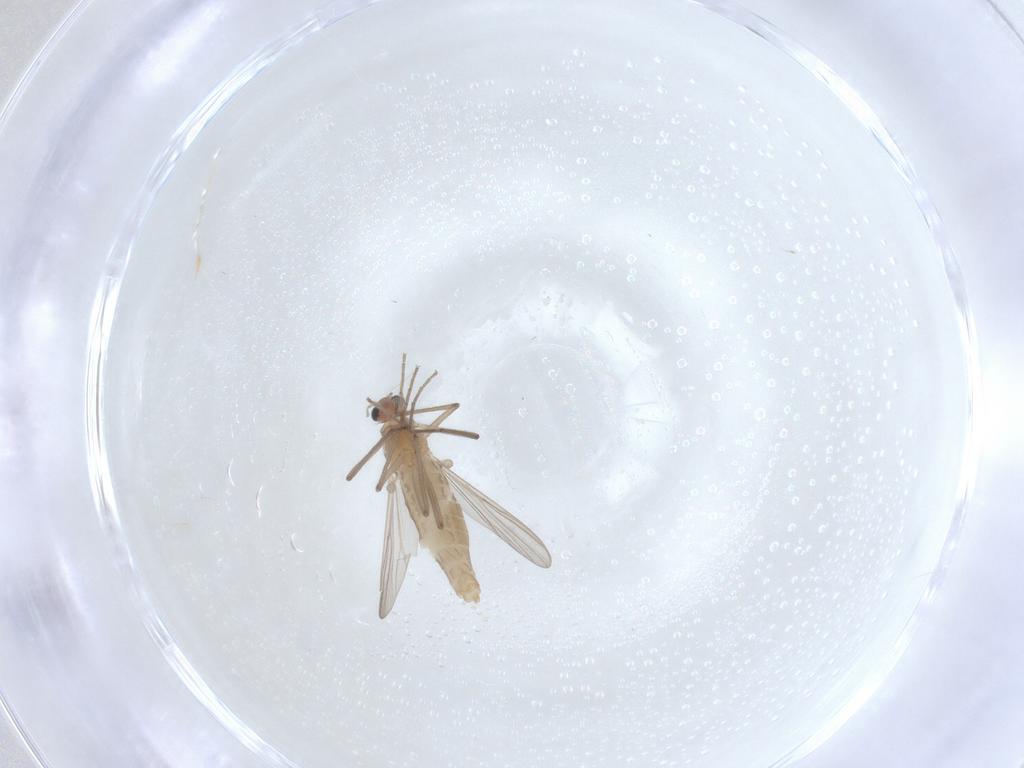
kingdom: Animalia
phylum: Arthropoda
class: Insecta
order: Diptera
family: Chironomidae
